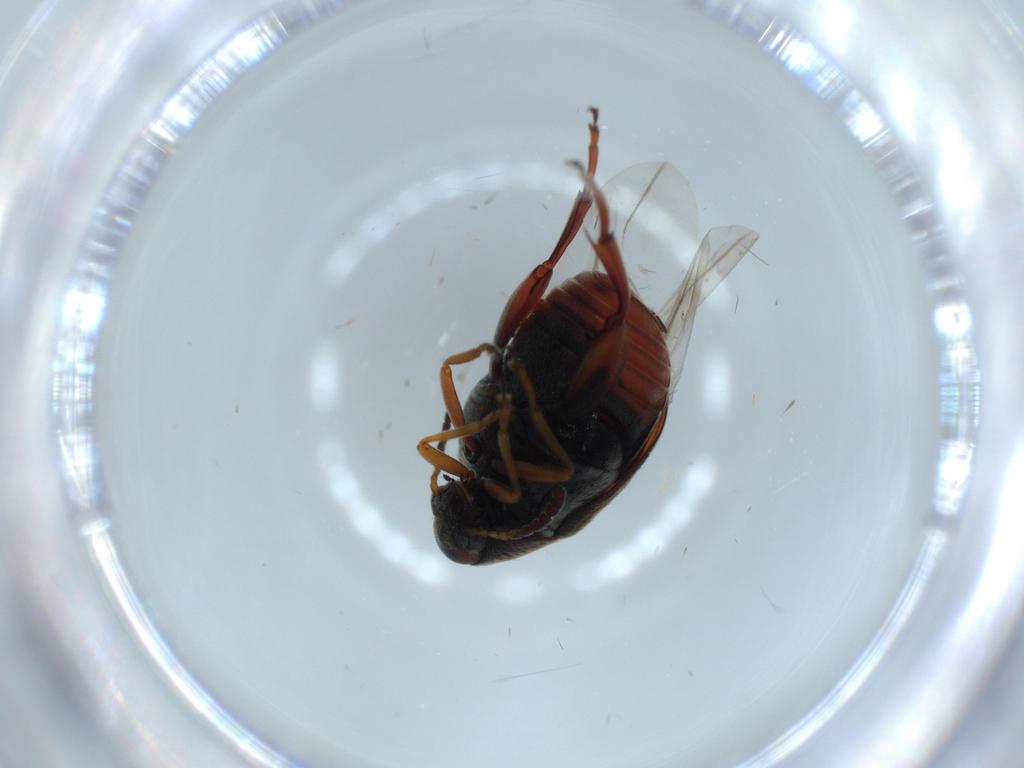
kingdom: Animalia
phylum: Arthropoda
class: Insecta
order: Coleoptera
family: Chrysomelidae
